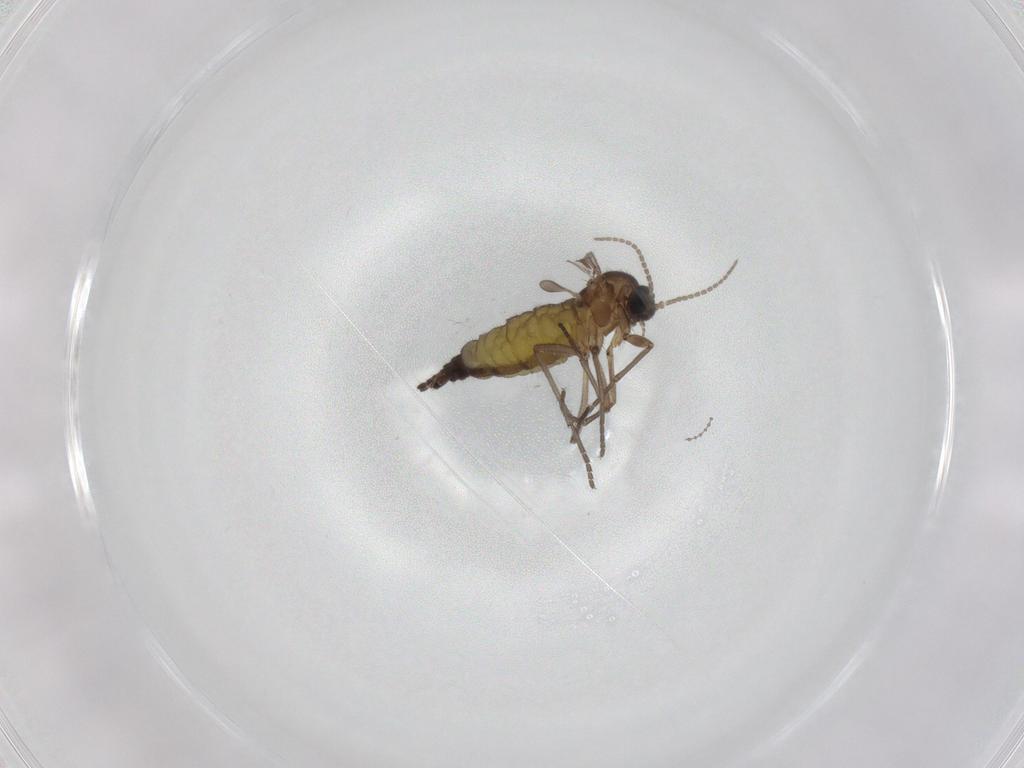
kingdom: Animalia
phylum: Arthropoda
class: Insecta
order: Diptera
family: Sciaridae
